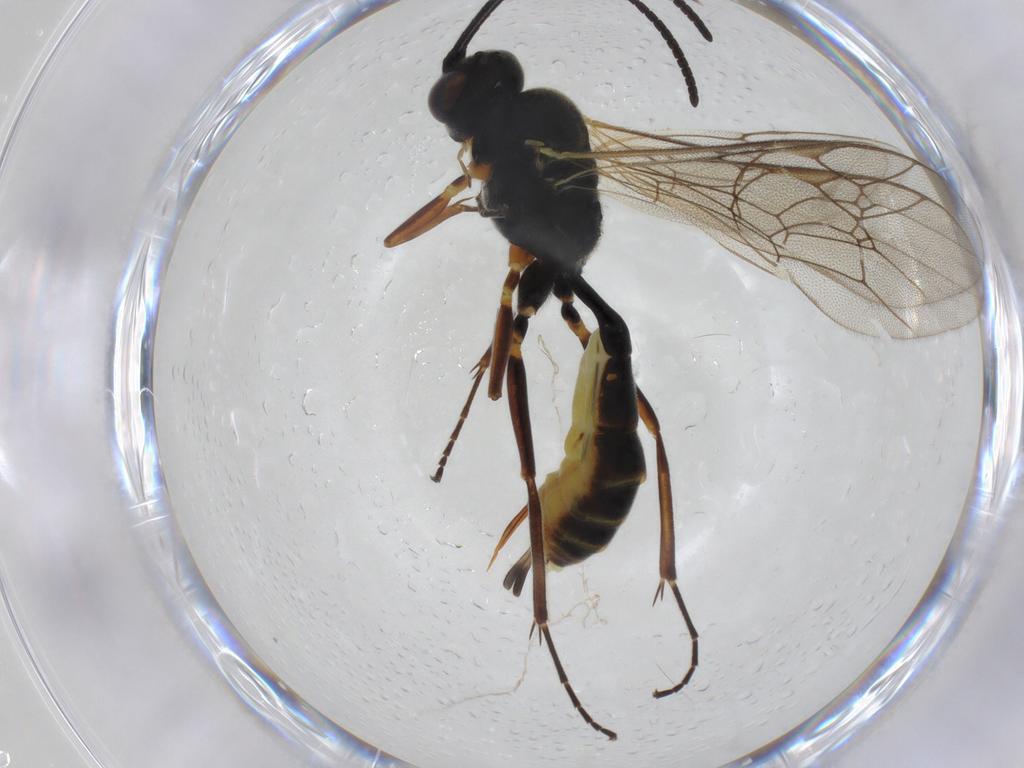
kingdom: Animalia
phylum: Arthropoda
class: Insecta
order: Hymenoptera
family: Ichneumonidae
